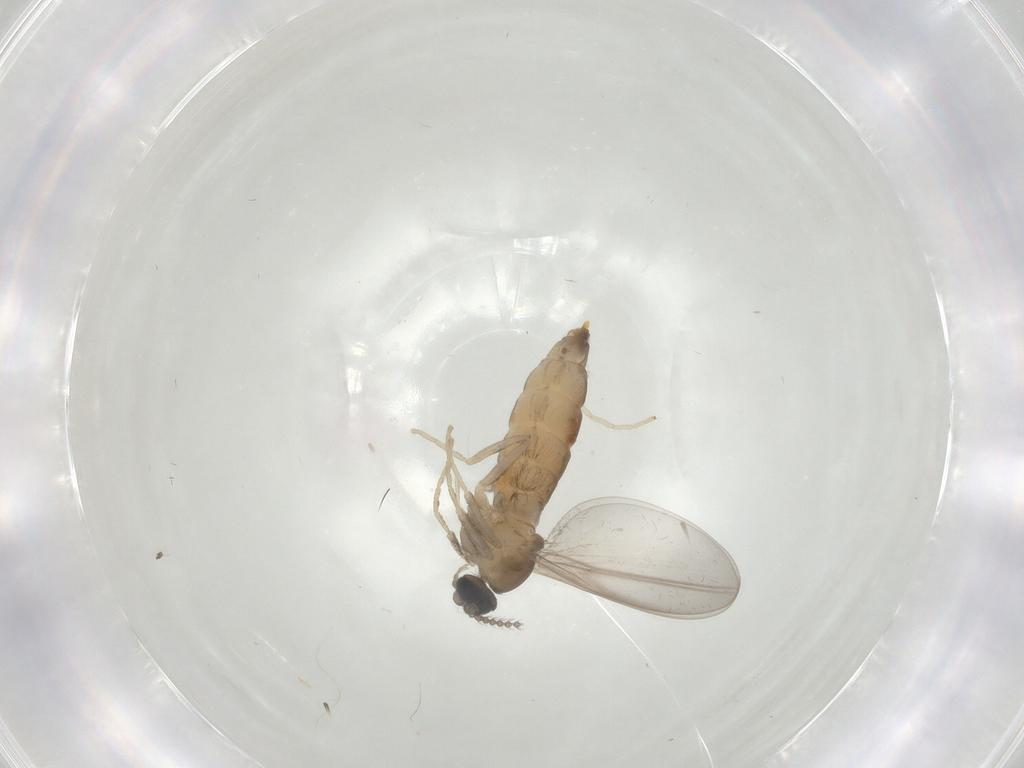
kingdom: Animalia
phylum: Arthropoda
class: Insecta
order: Diptera
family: Cecidomyiidae
